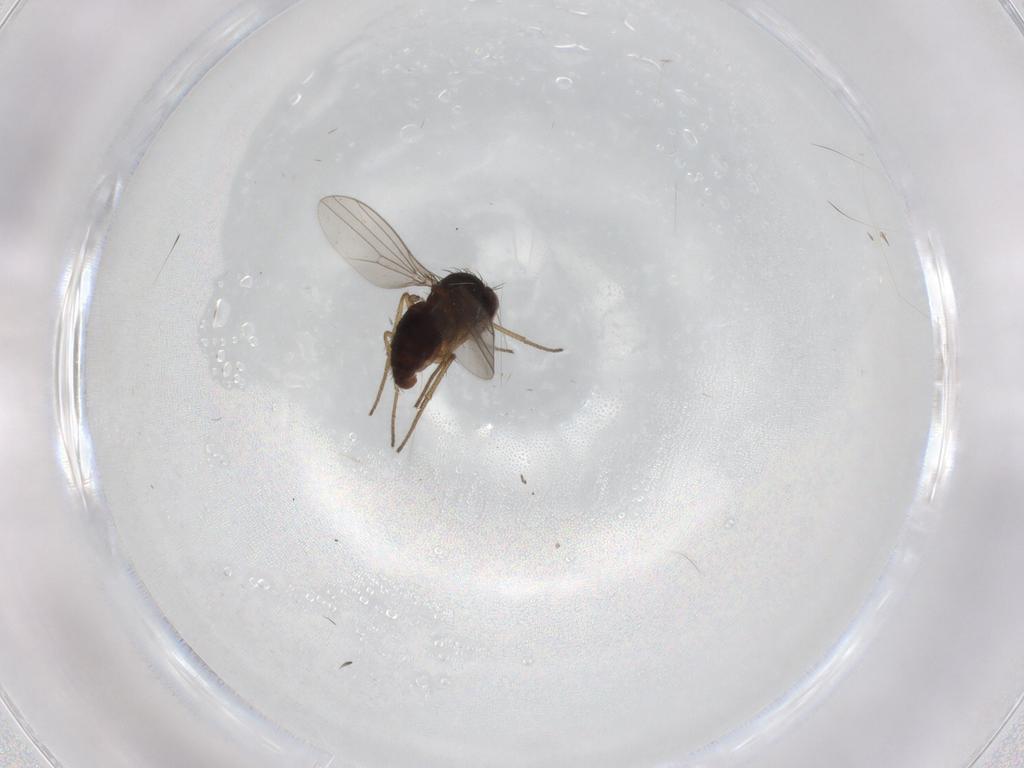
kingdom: Animalia
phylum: Arthropoda
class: Insecta
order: Diptera
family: Dolichopodidae
